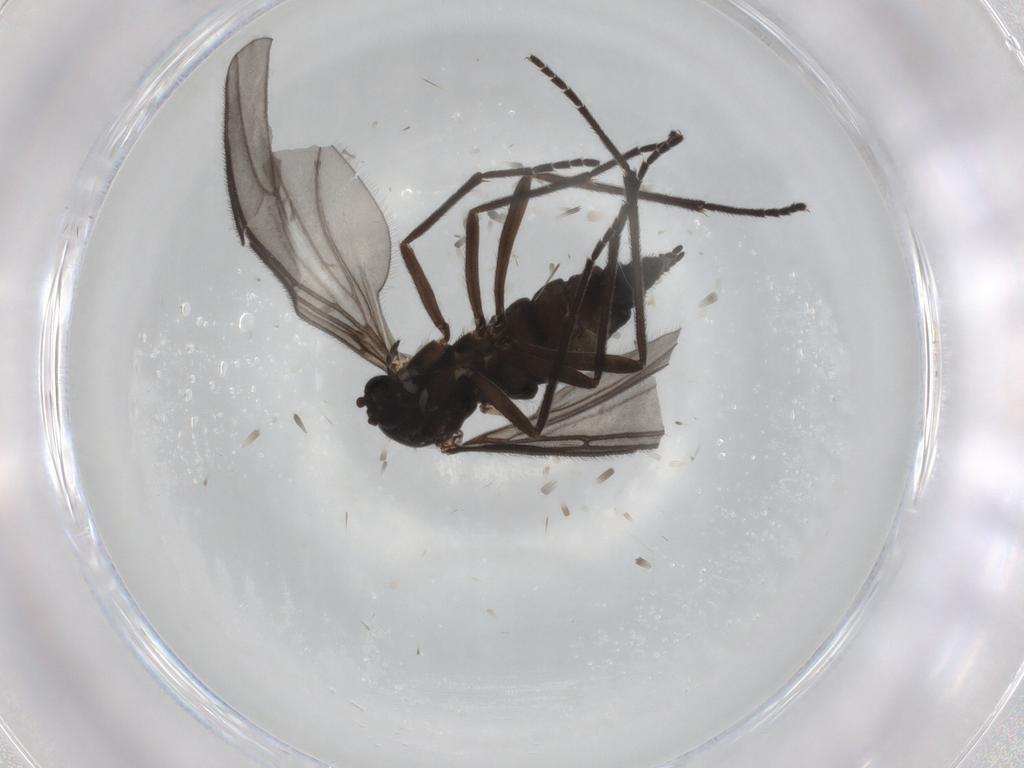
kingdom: Animalia
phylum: Arthropoda
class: Insecta
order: Diptera
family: Sciaridae
